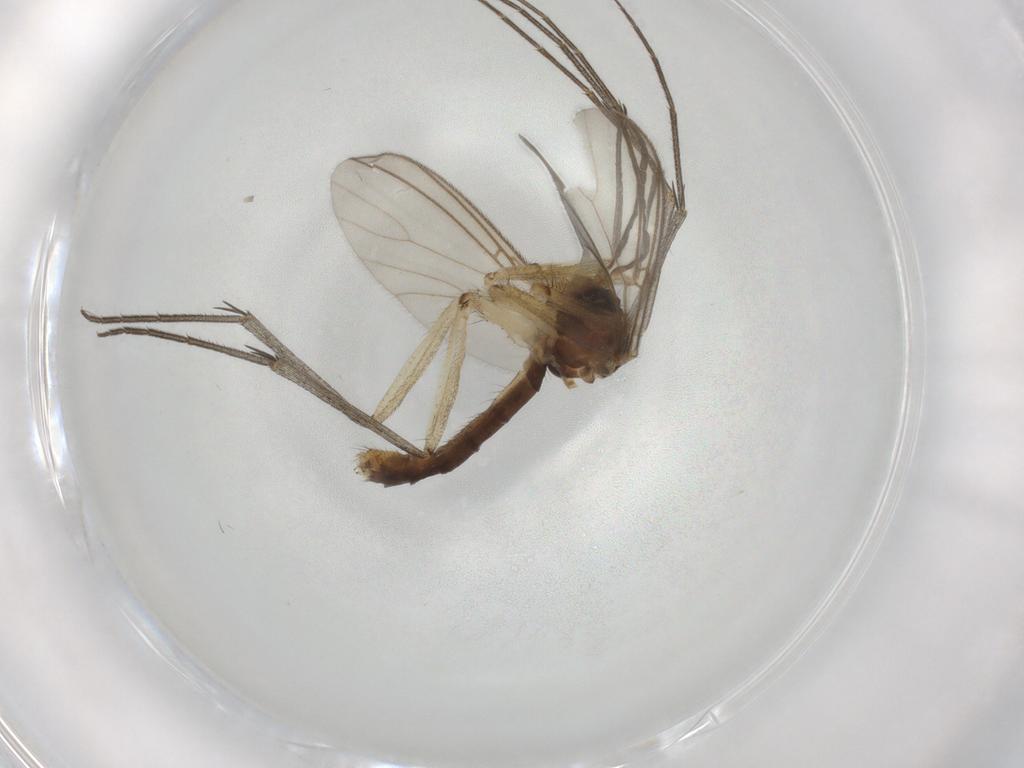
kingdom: Animalia
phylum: Arthropoda
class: Insecta
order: Diptera
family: Mycetophilidae
